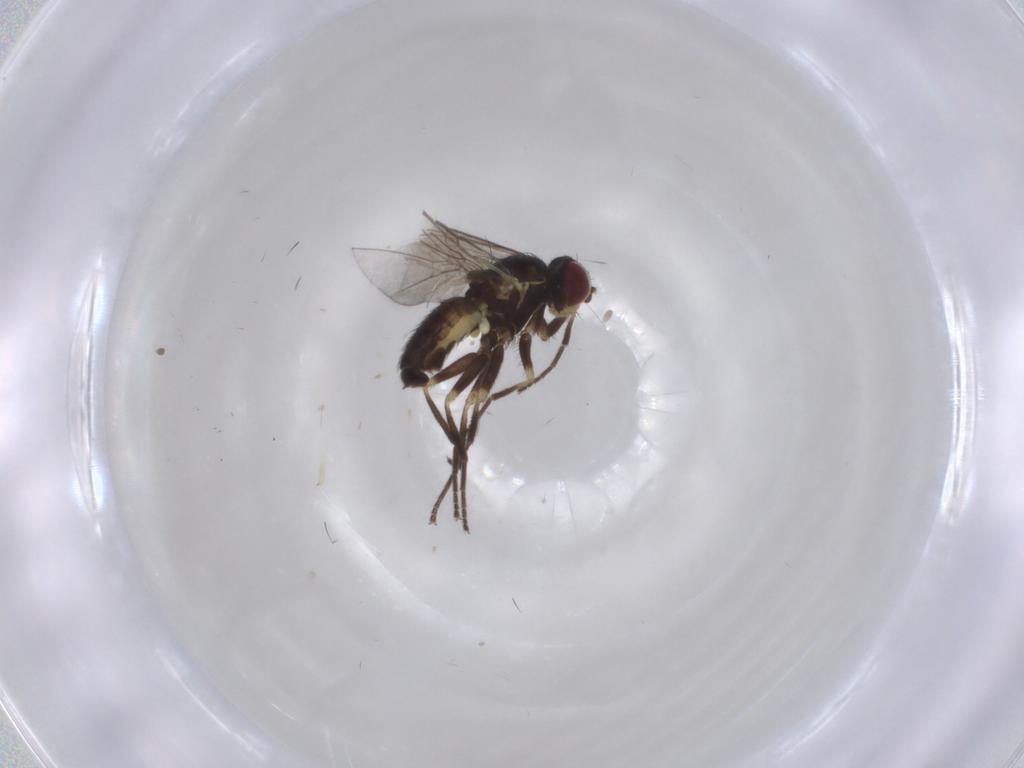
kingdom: Animalia
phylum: Arthropoda
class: Insecta
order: Diptera
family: Agromyzidae
